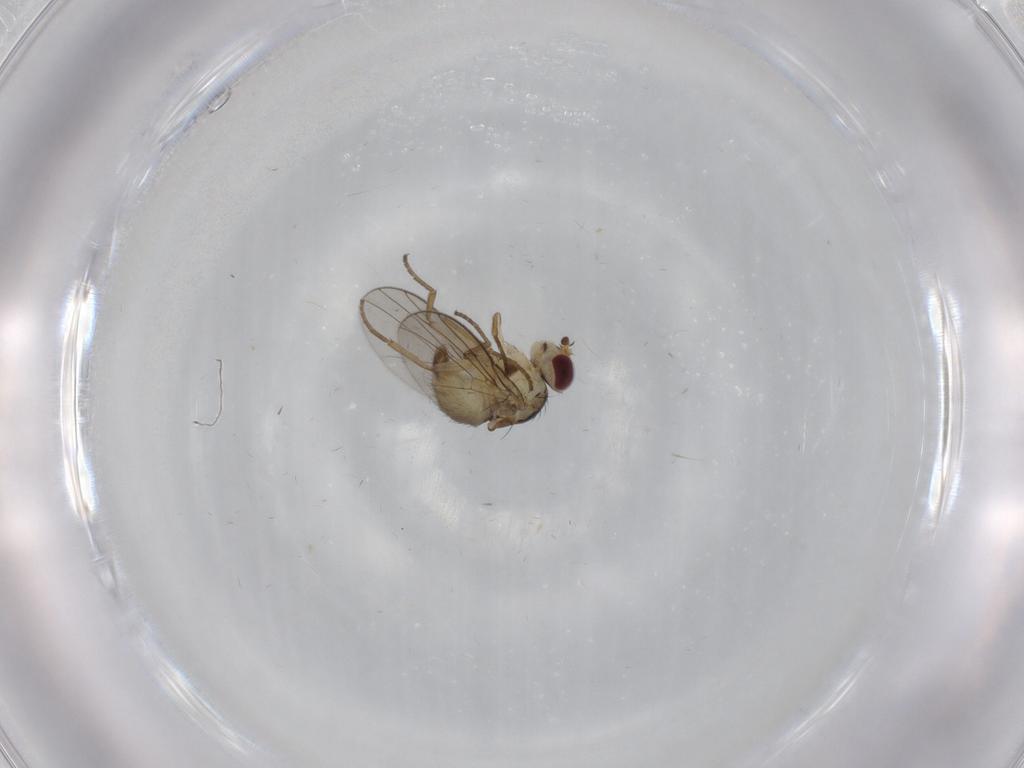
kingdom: Animalia
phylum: Arthropoda
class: Insecta
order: Diptera
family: Agromyzidae
